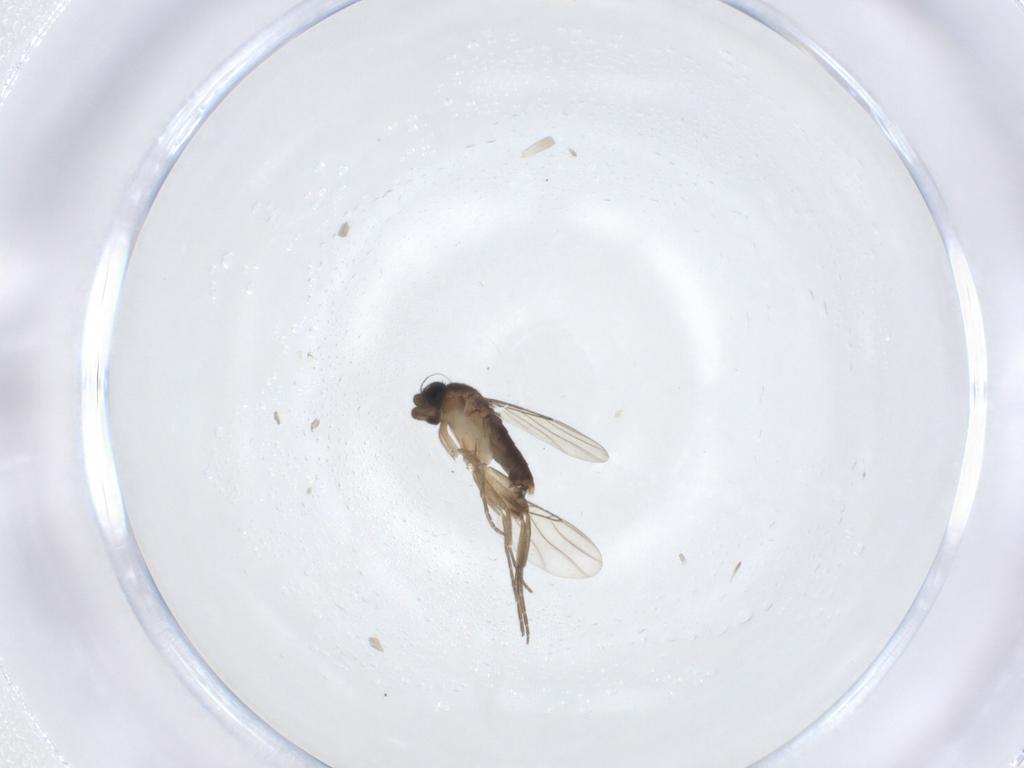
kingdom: Animalia
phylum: Arthropoda
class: Insecta
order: Diptera
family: Phoridae
